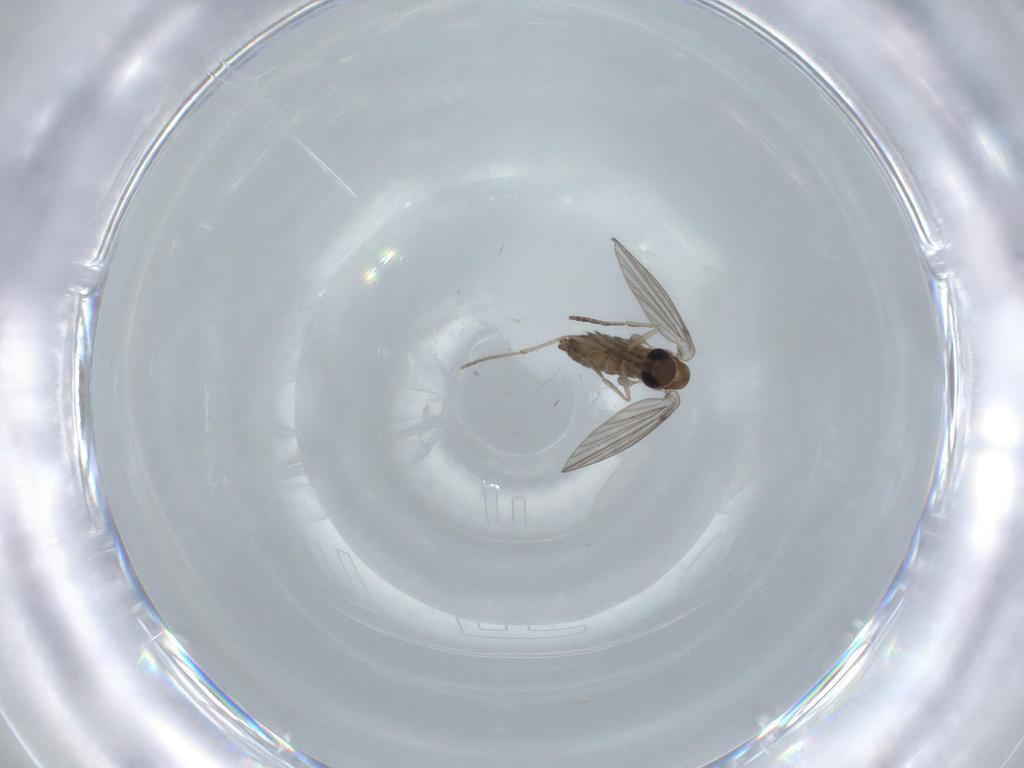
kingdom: Animalia
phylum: Arthropoda
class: Insecta
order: Diptera
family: Psychodidae
